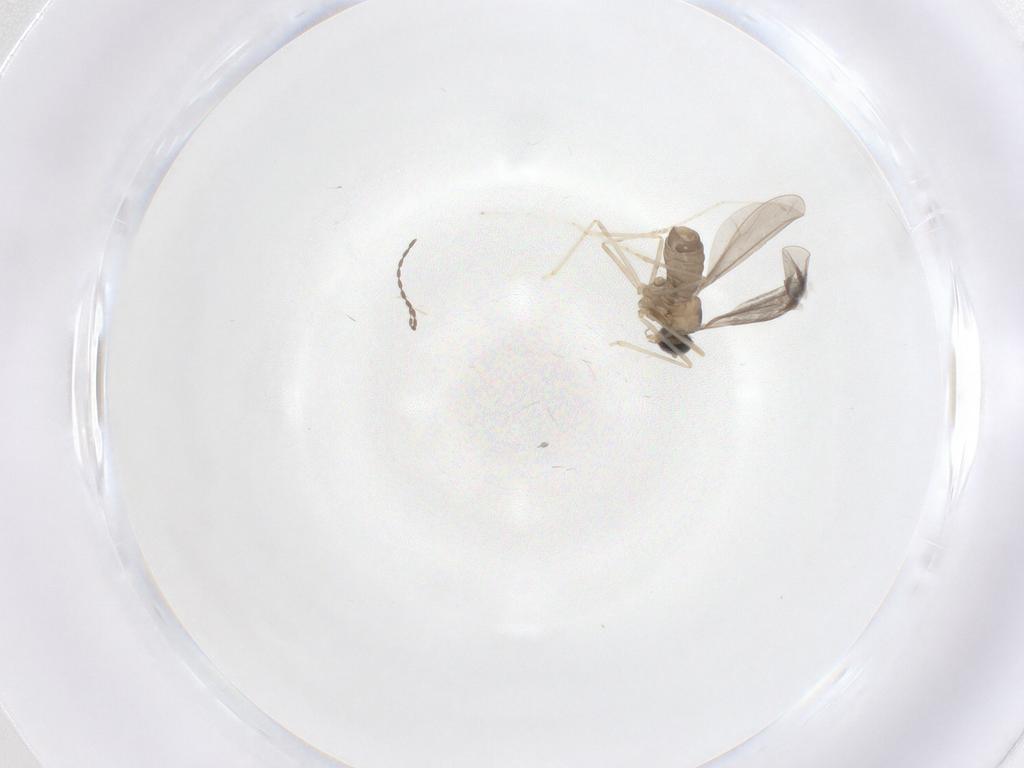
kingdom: Animalia
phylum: Arthropoda
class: Insecta
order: Diptera
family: Cecidomyiidae
